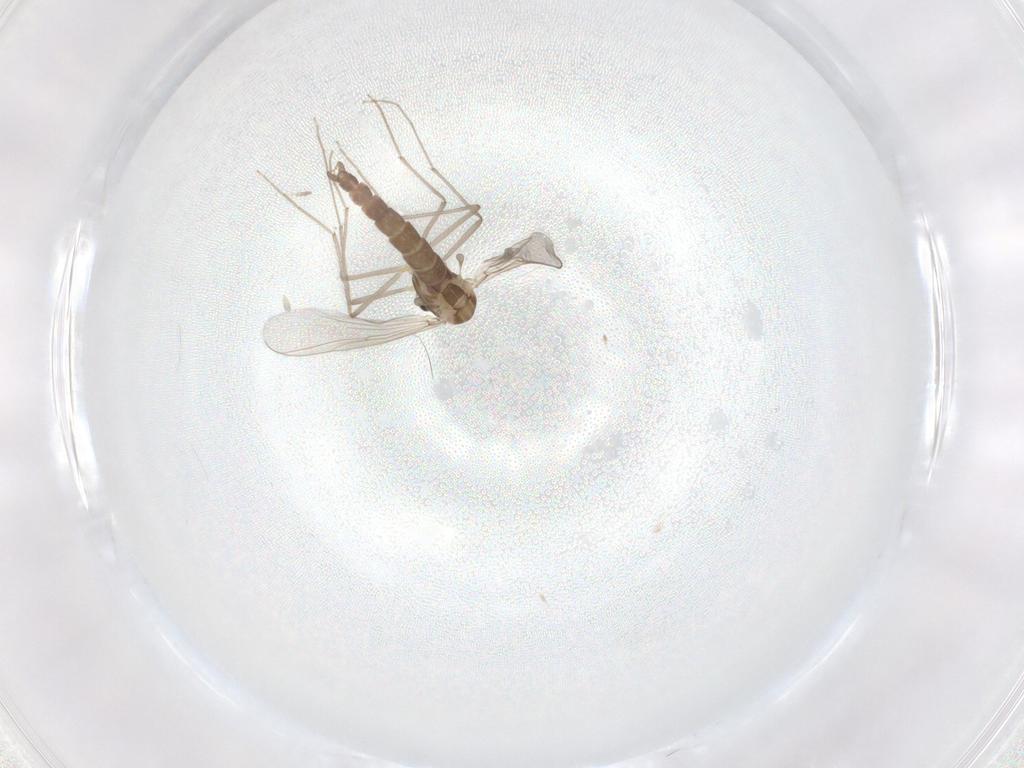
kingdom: Animalia
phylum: Arthropoda
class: Insecta
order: Diptera
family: Chironomidae
